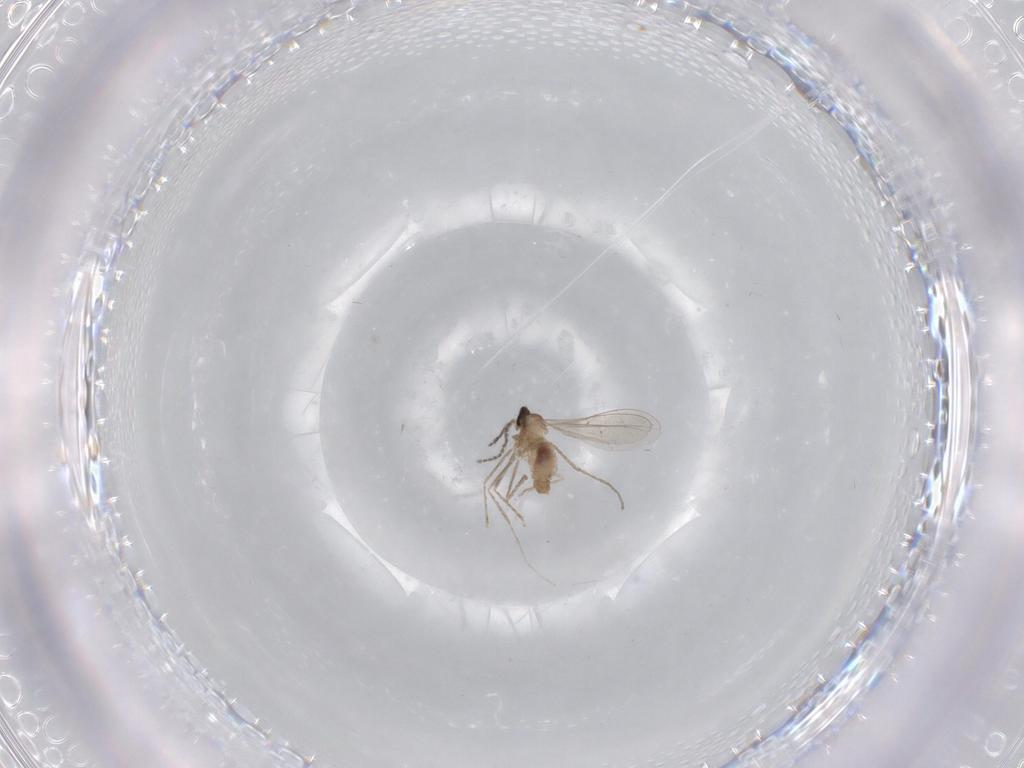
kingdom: Animalia
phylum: Arthropoda
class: Insecta
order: Diptera
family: Cecidomyiidae
